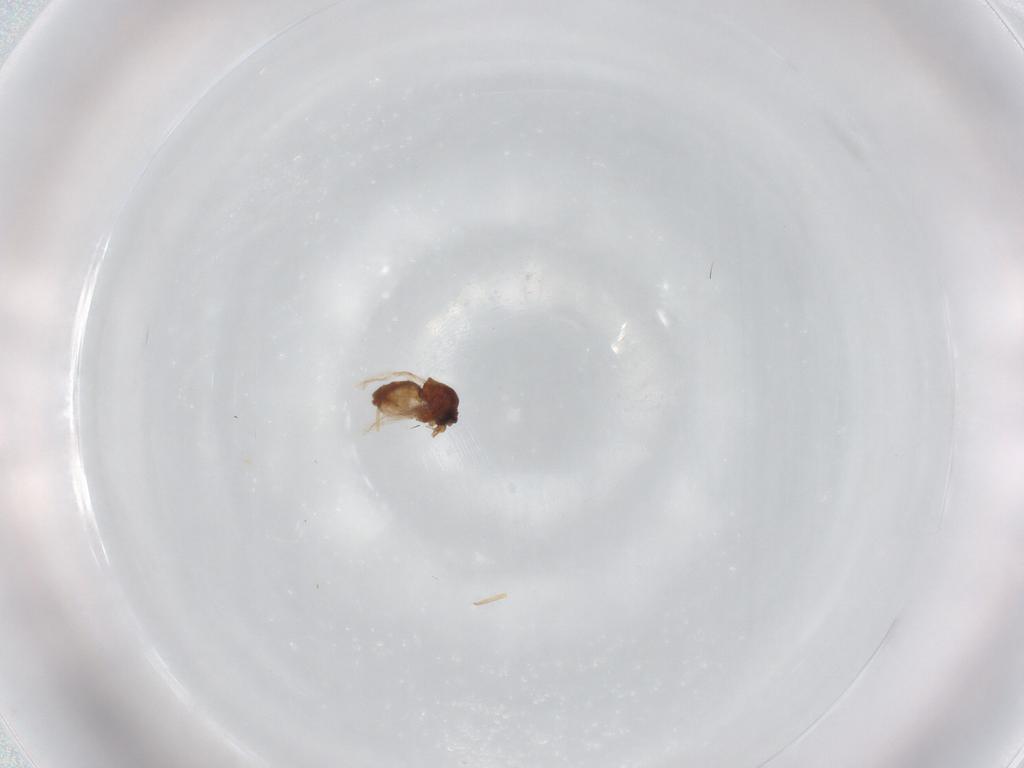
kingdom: Animalia
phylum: Arthropoda
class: Insecta
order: Diptera
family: Ceratopogonidae
